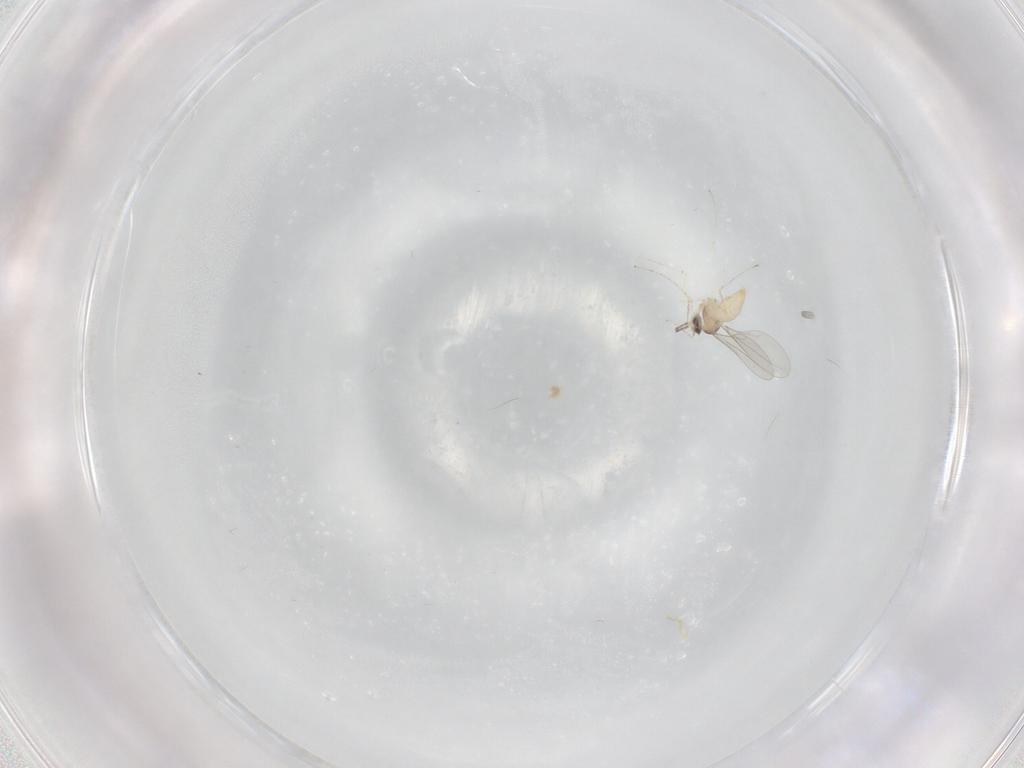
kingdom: Animalia
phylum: Arthropoda
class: Insecta
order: Diptera
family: Cecidomyiidae
